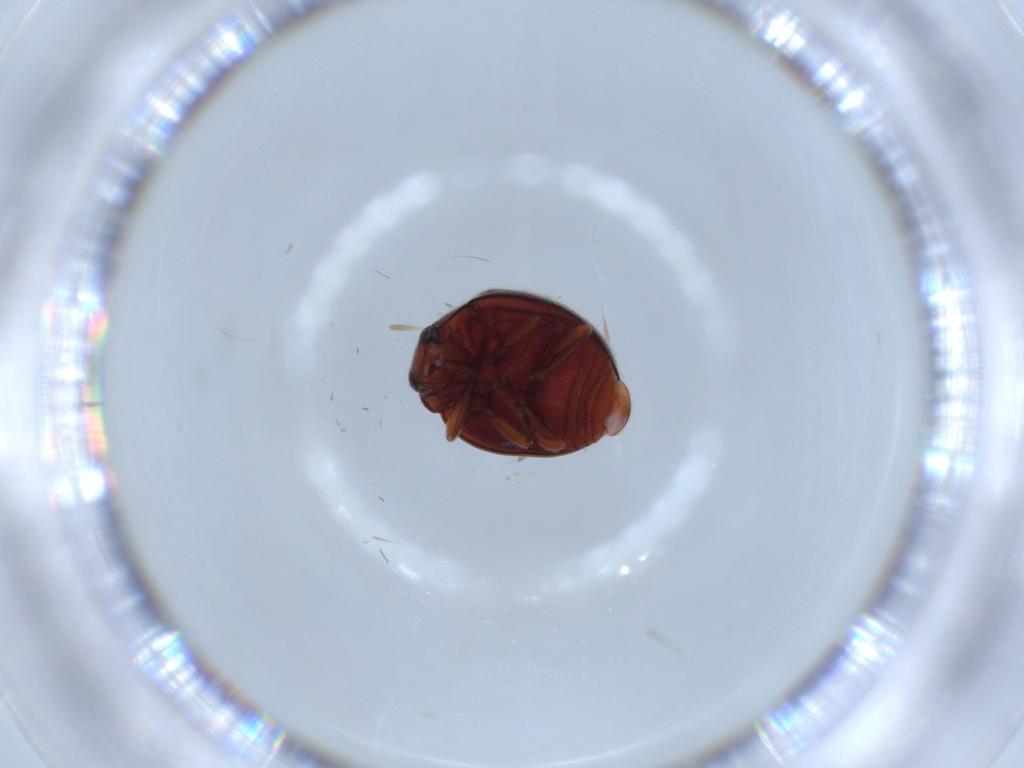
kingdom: Animalia
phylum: Arthropoda
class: Insecta
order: Coleoptera
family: Coccinellidae
